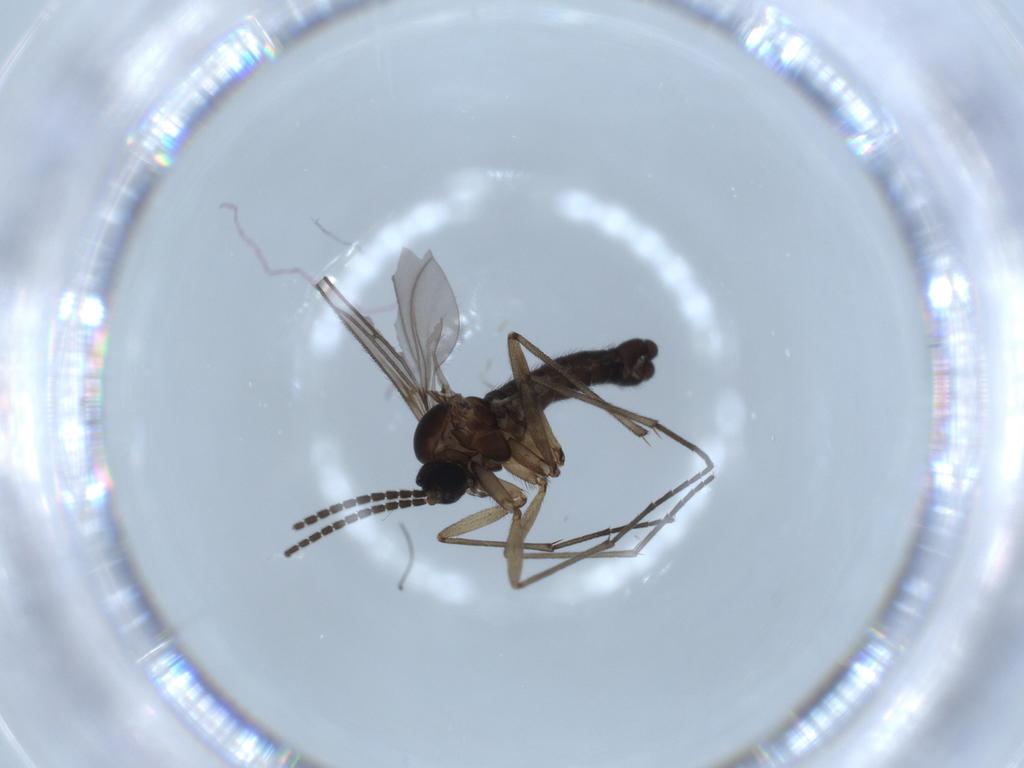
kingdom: Animalia
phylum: Arthropoda
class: Insecta
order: Diptera
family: Sciaridae
